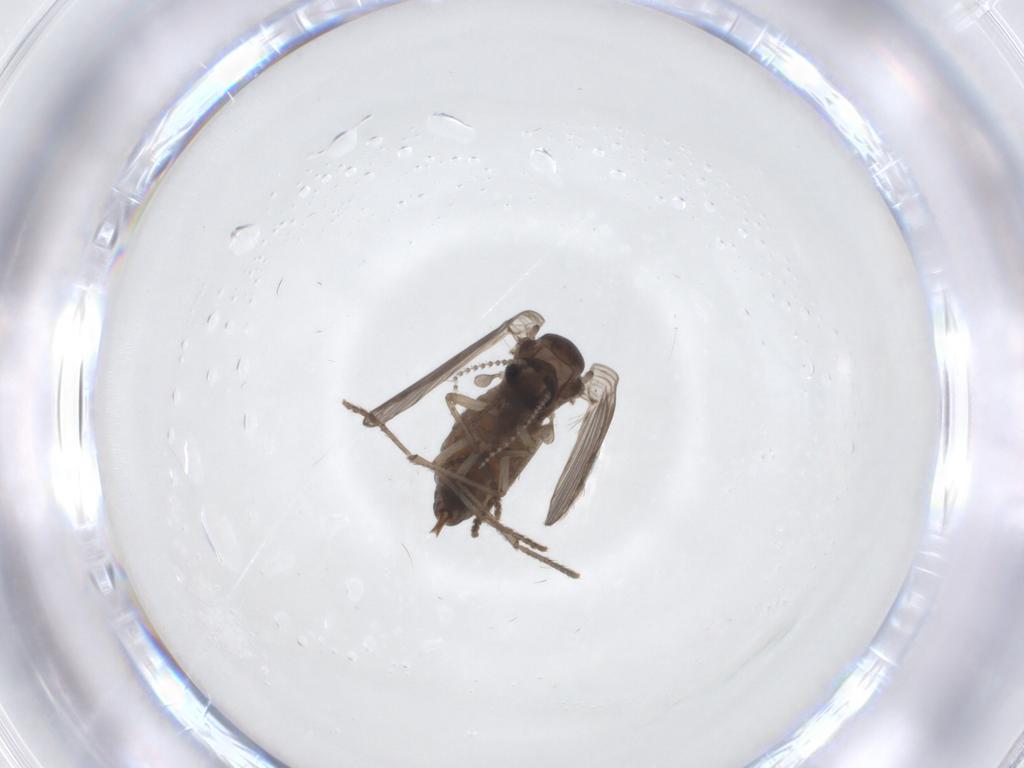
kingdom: Animalia
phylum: Arthropoda
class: Insecta
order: Diptera
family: Psychodidae
